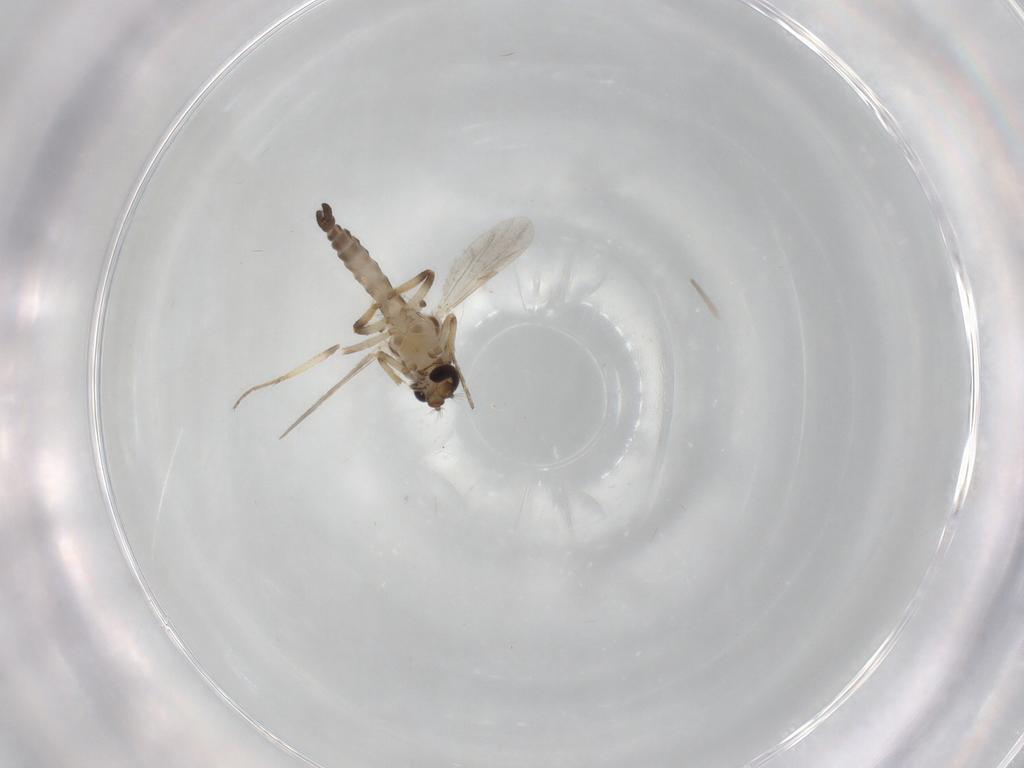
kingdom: Animalia
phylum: Arthropoda
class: Insecta
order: Diptera
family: Ceratopogonidae
